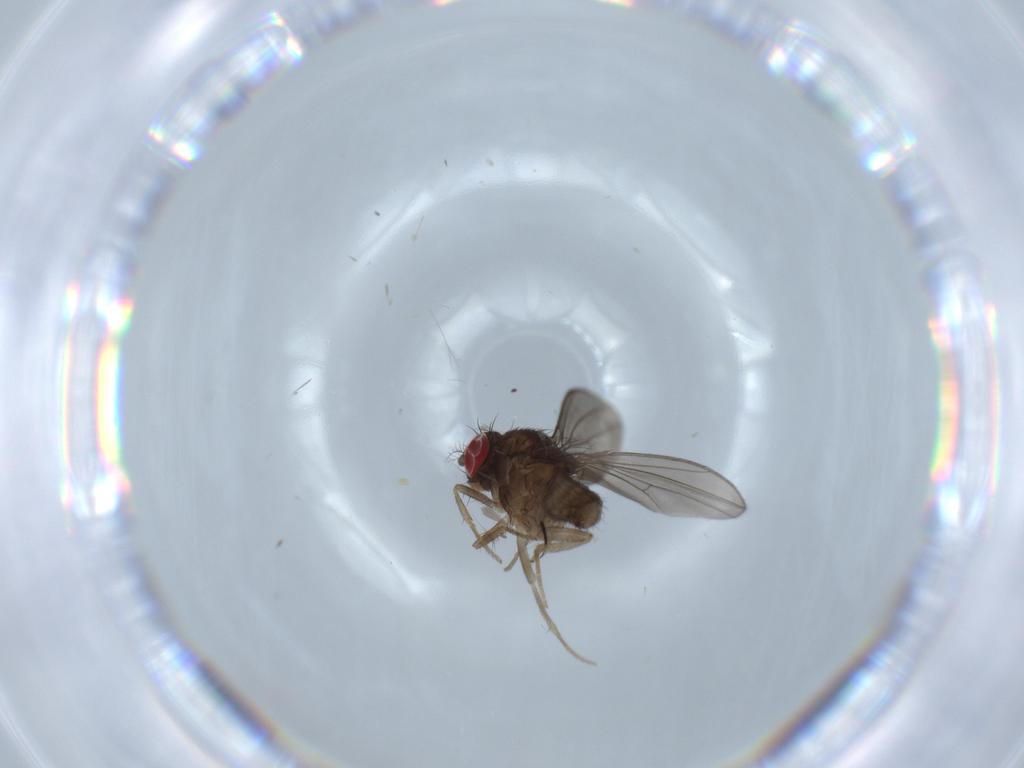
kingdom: Animalia
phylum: Arthropoda
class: Insecta
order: Diptera
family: Drosophilidae
